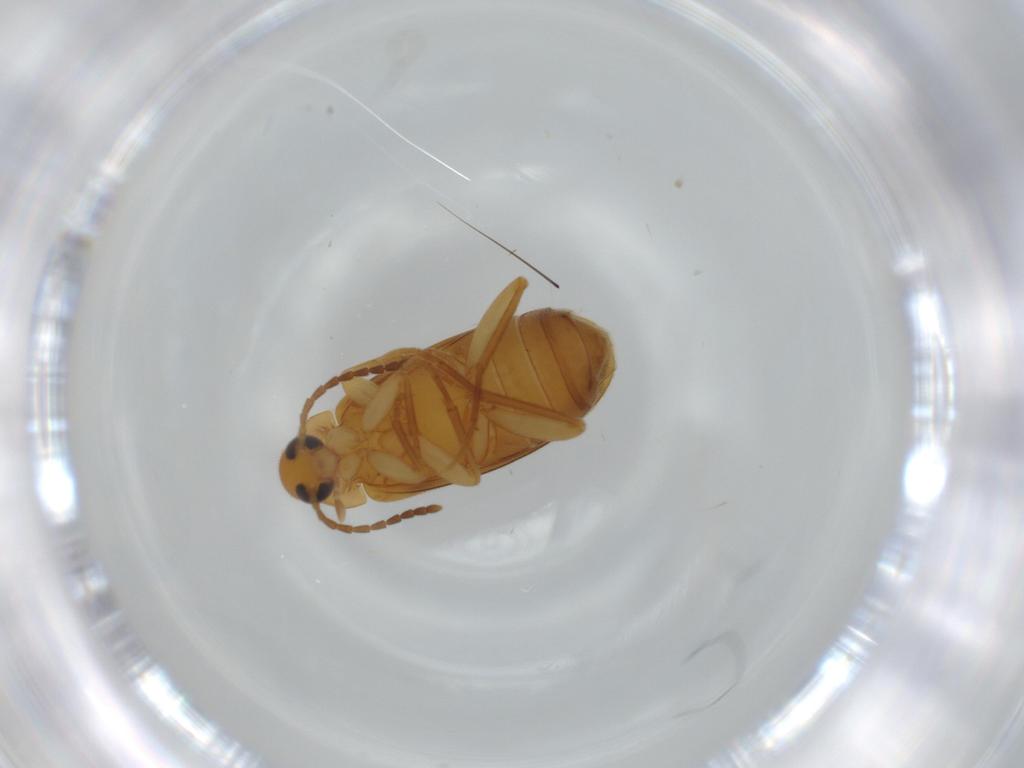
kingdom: Animalia
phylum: Arthropoda
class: Insecta
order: Coleoptera
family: Scraptiidae
